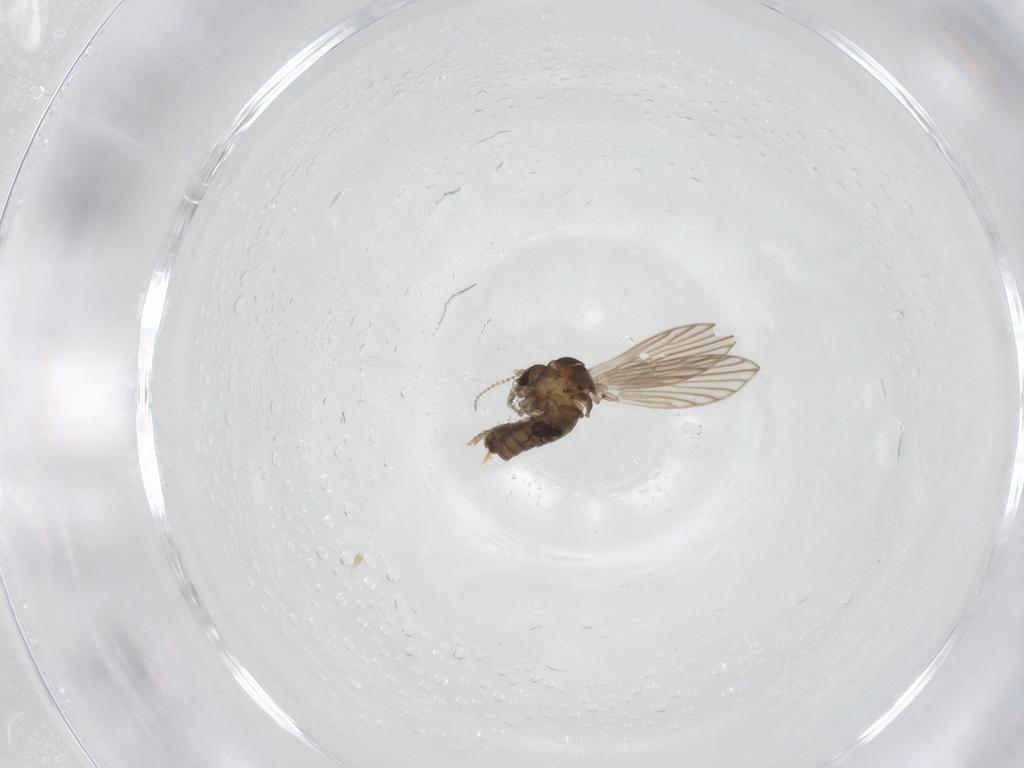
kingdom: Animalia
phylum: Arthropoda
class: Insecta
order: Diptera
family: Psychodidae
